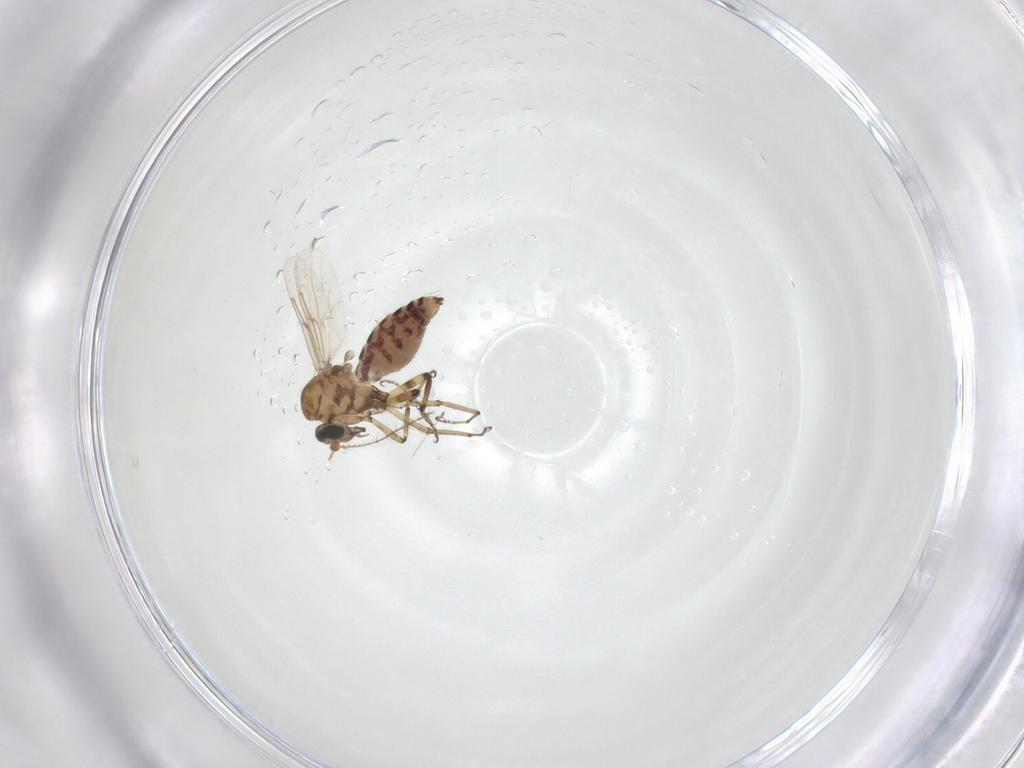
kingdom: Animalia
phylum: Arthropoda
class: Insecta
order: Diptera
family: Ceratopogonidae
